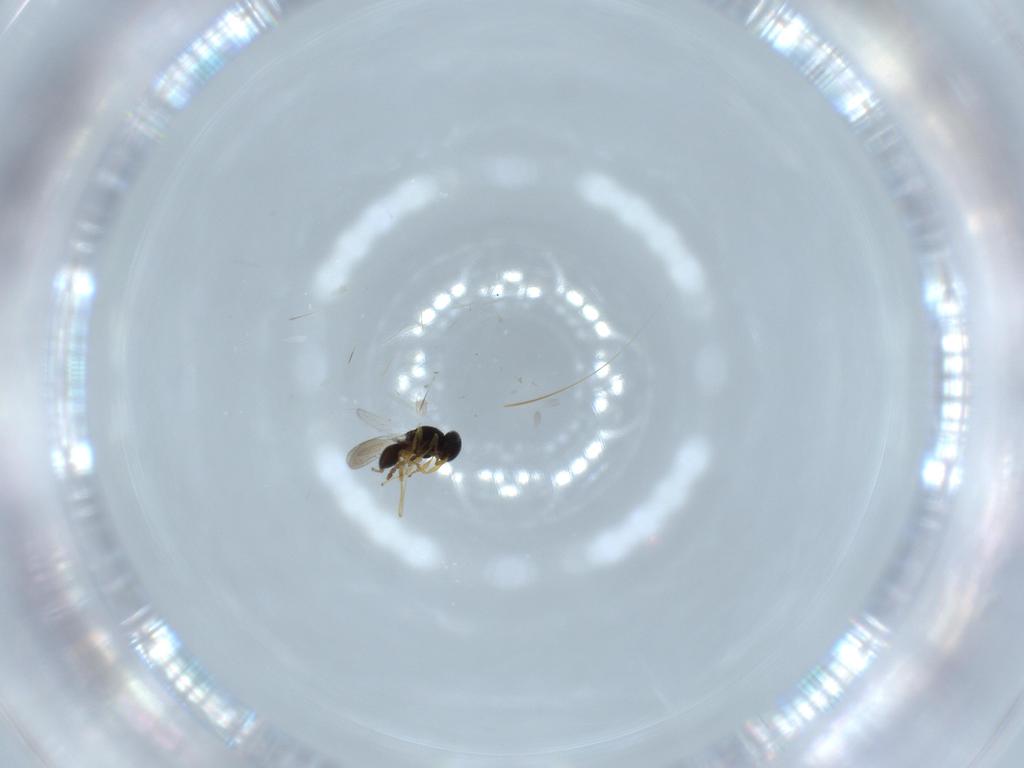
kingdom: Animalia
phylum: Arthropoda
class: Insecta
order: Hymenoptera
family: Platygastridae
